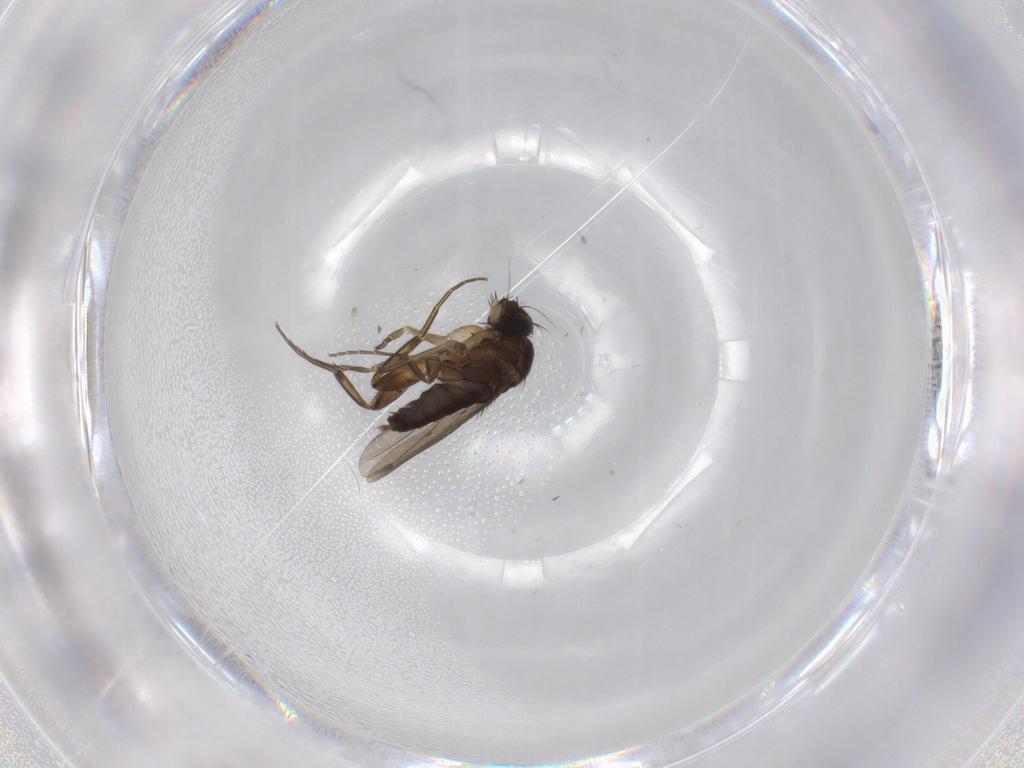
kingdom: Animalia
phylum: Arthropoda
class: Insecta
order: Diptera
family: Phoridae
